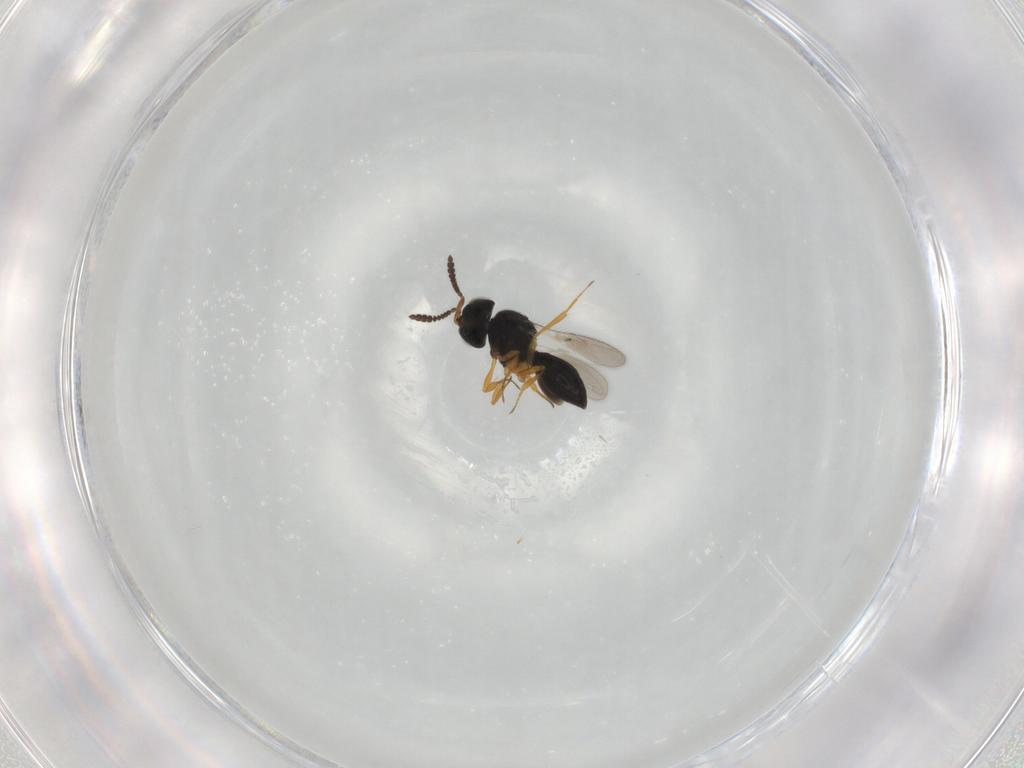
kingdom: Animalia
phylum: Arthropoda
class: Insecta
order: Hymenoptera
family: Scelionidae
